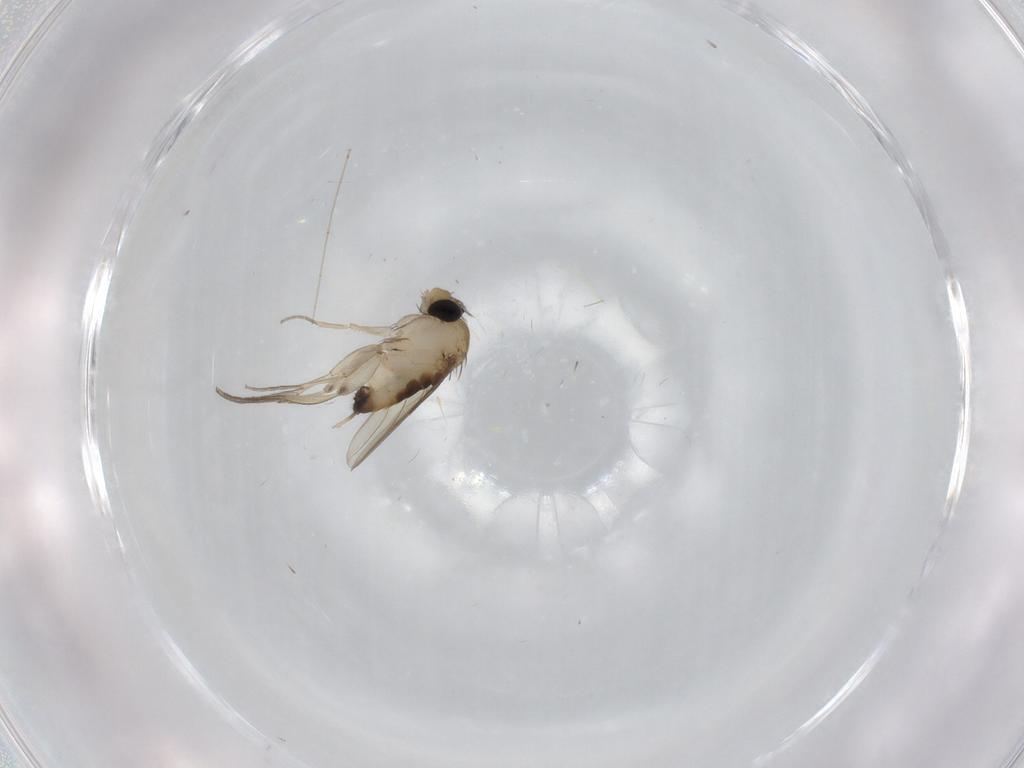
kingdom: Animalia
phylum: Arthropoda
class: Insecta
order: Diptera
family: Phoridae
